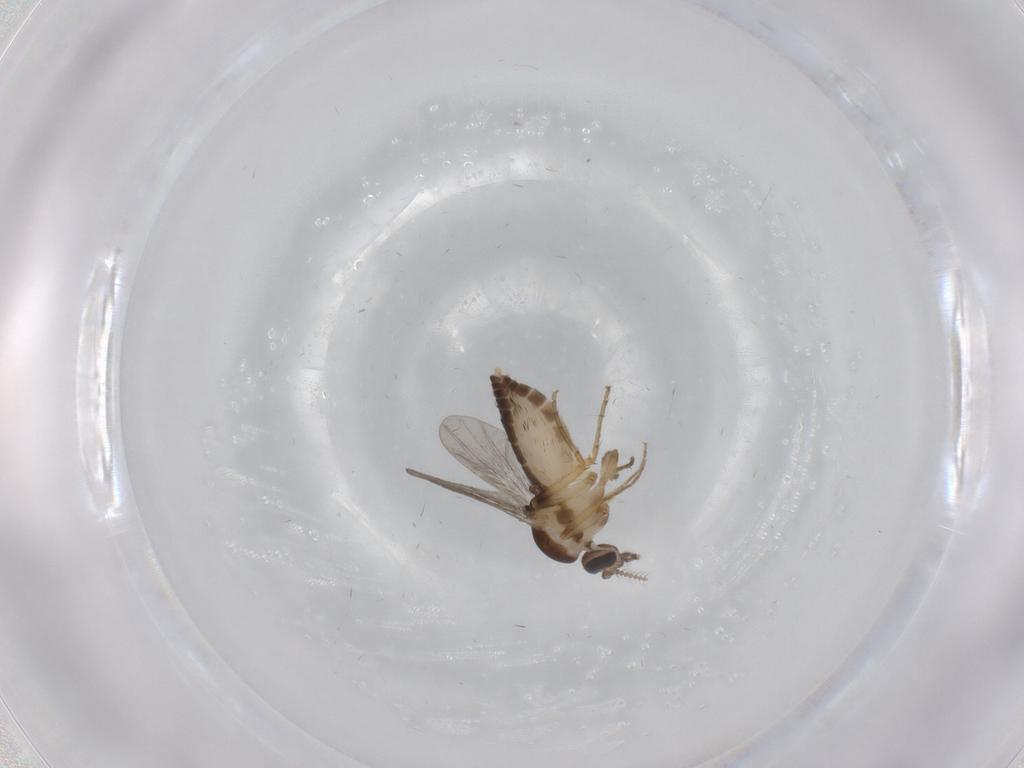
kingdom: Animalia
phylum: Arthropoda
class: Insecta
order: Diptera
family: Ceratopogonidae
